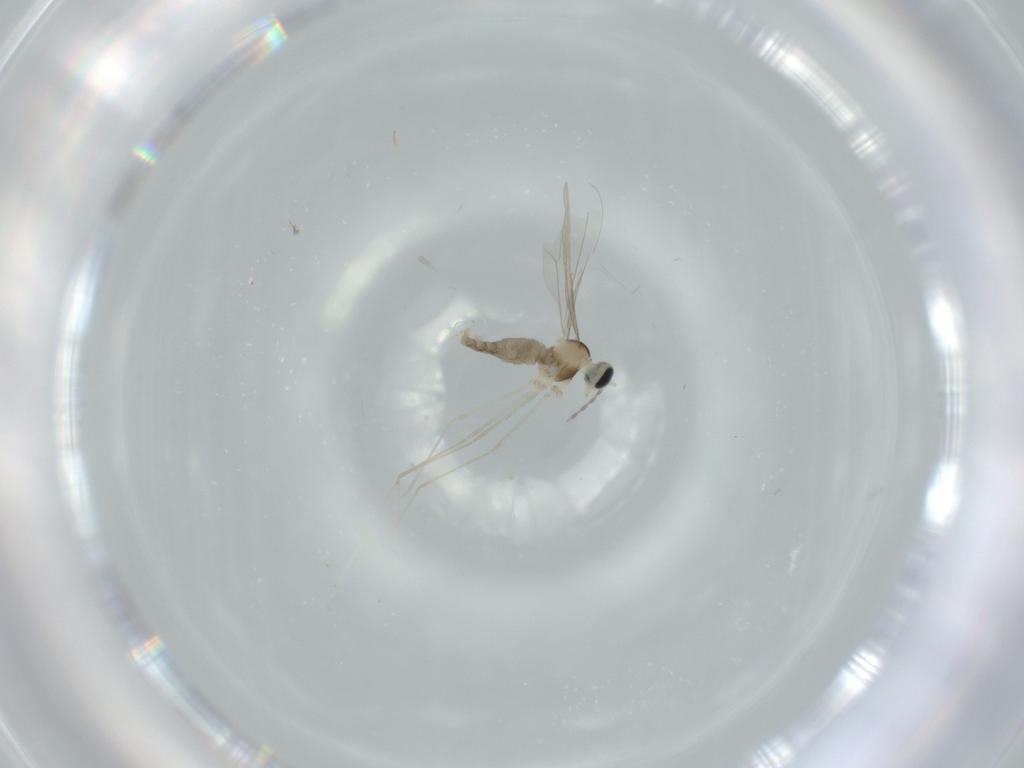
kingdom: Animalia
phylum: Arthropoda
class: Insecta
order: Diptera
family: Cecidomyiidae
